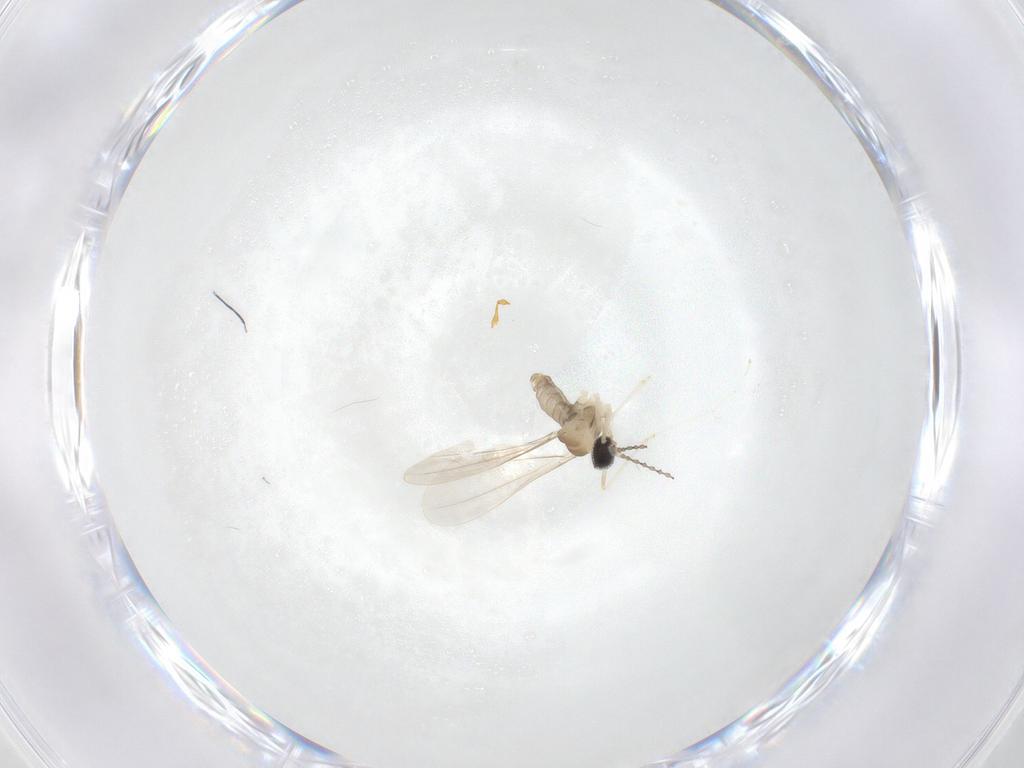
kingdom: Animalia
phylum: Arthropoda
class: Insecta
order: Diptera
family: Cecidomyiidae
